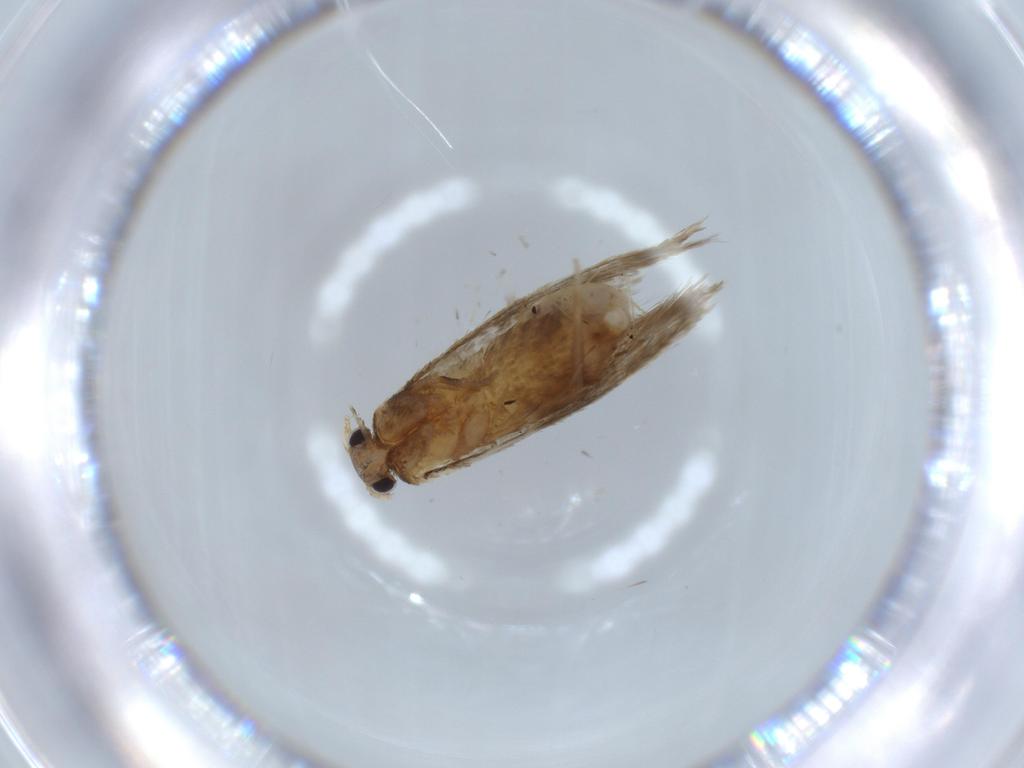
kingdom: Animalia
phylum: Arthropoda
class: Insecta
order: Lepidoptera
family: Tineidae
